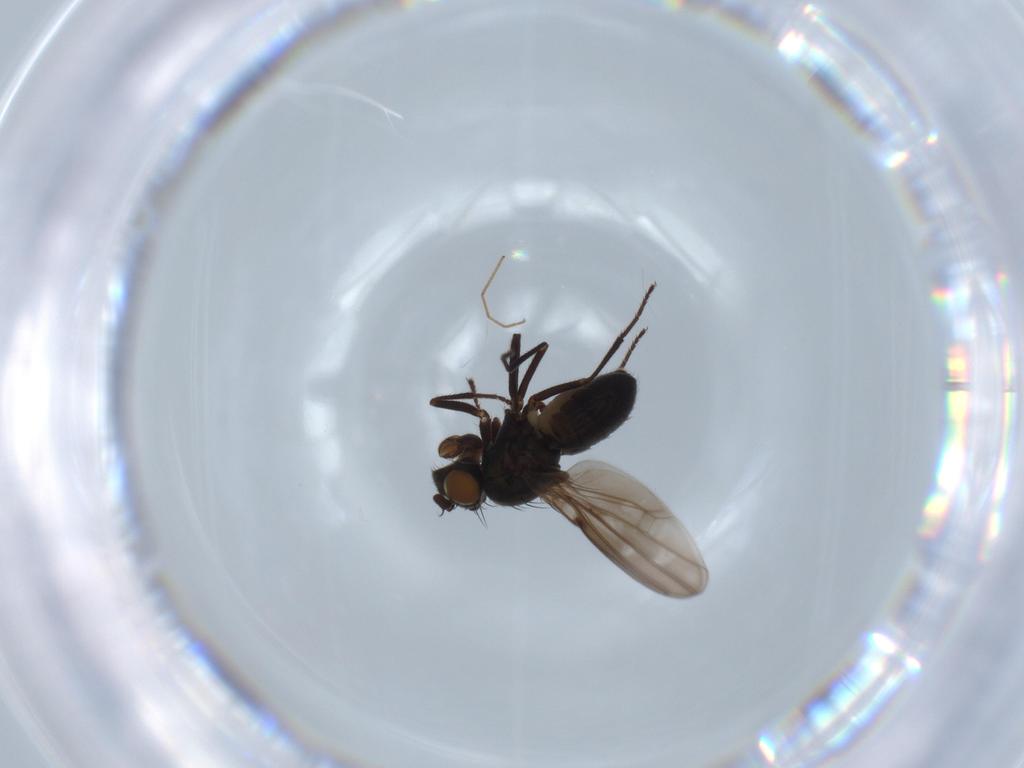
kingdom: Animalia
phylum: Arthropoda
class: Insecta
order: Diptera
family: Ephydridae
